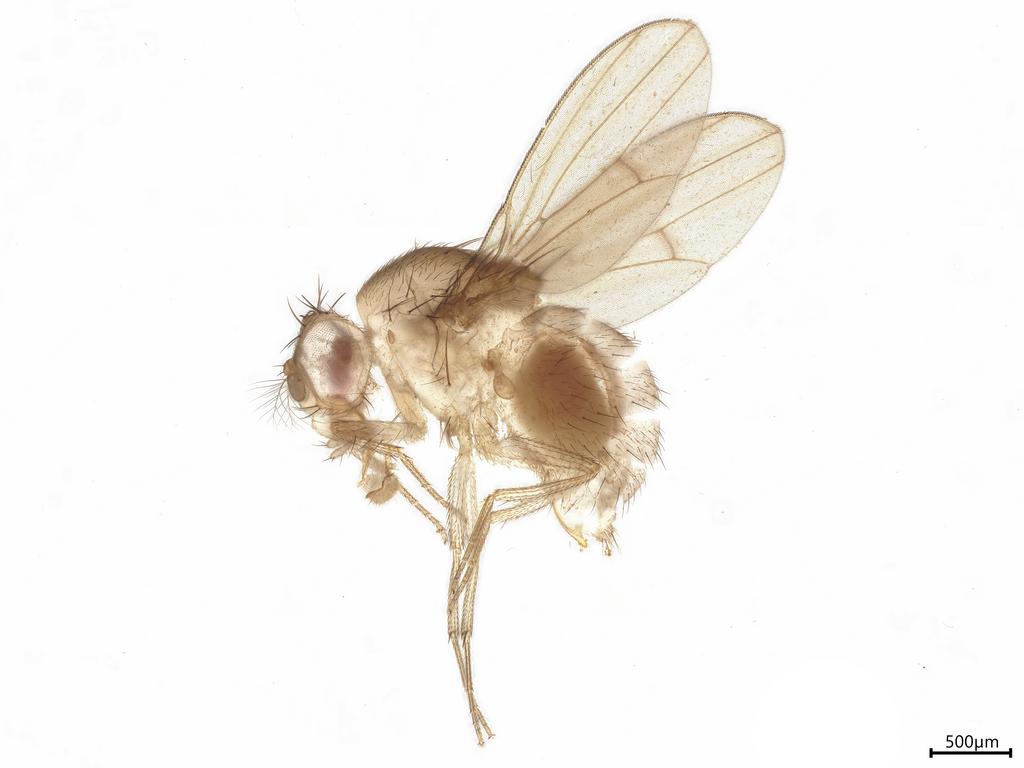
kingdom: Animalia
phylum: Arthropoda
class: Insecta
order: Diptera
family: Drosophilidae
